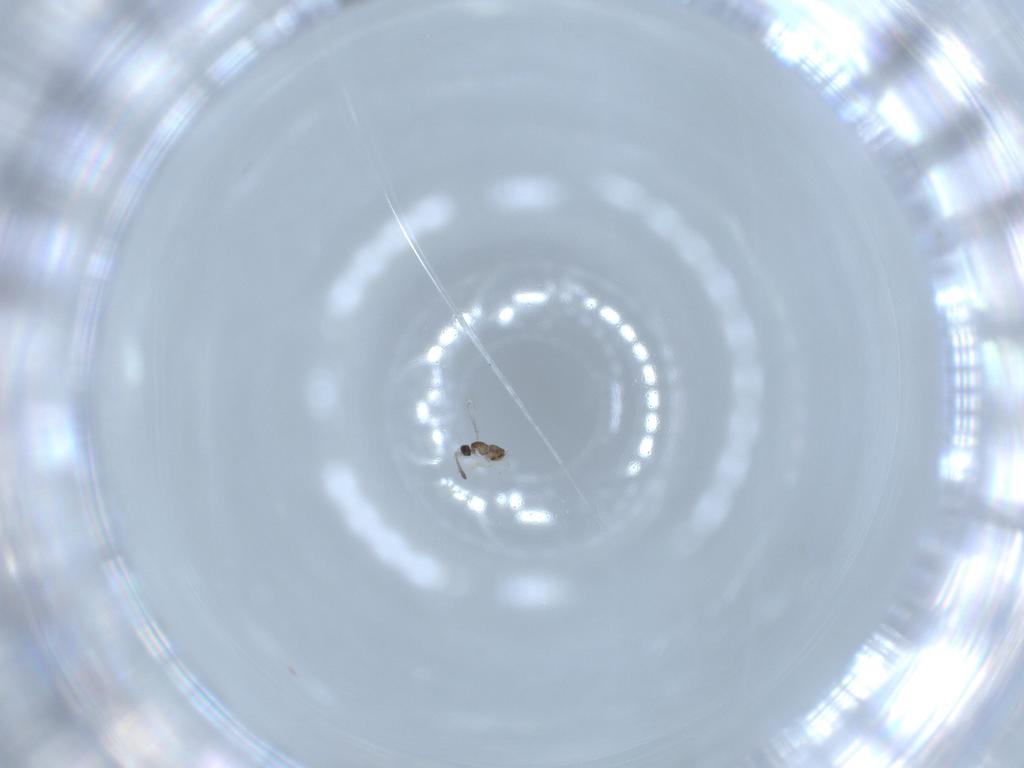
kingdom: Animalia
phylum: Arthropoda
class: Insecta
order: Hymenoptera
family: Mymaridae
